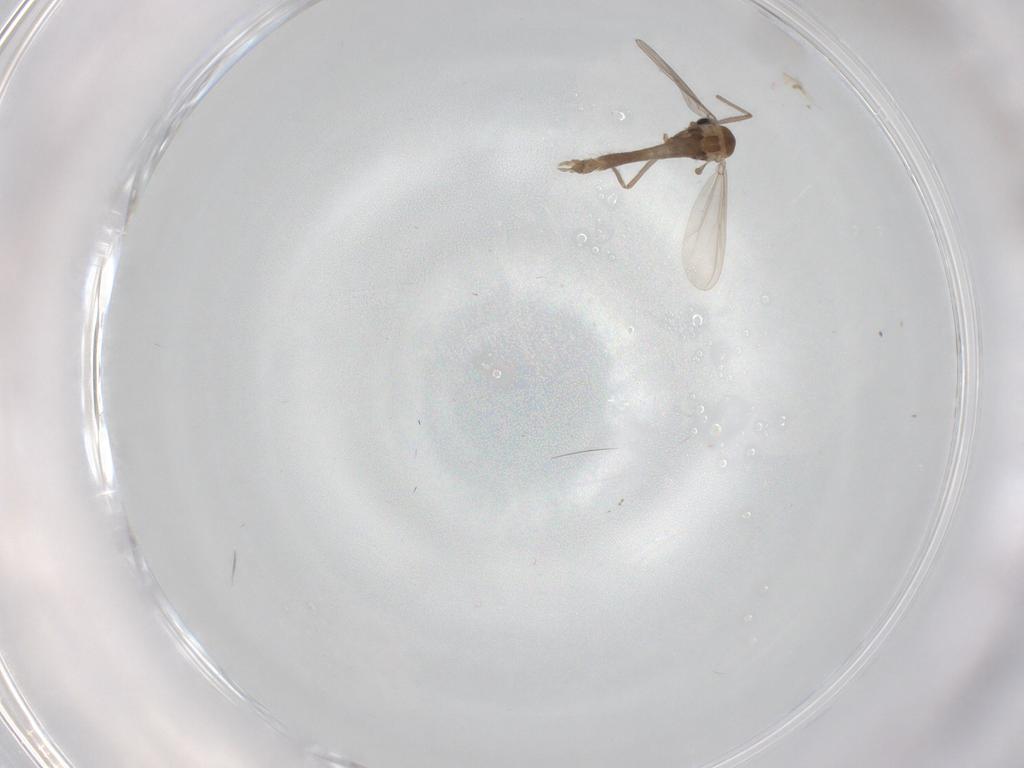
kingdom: Animalia
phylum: Arthropoda
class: Insecta
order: Diptera
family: Chironomidae
